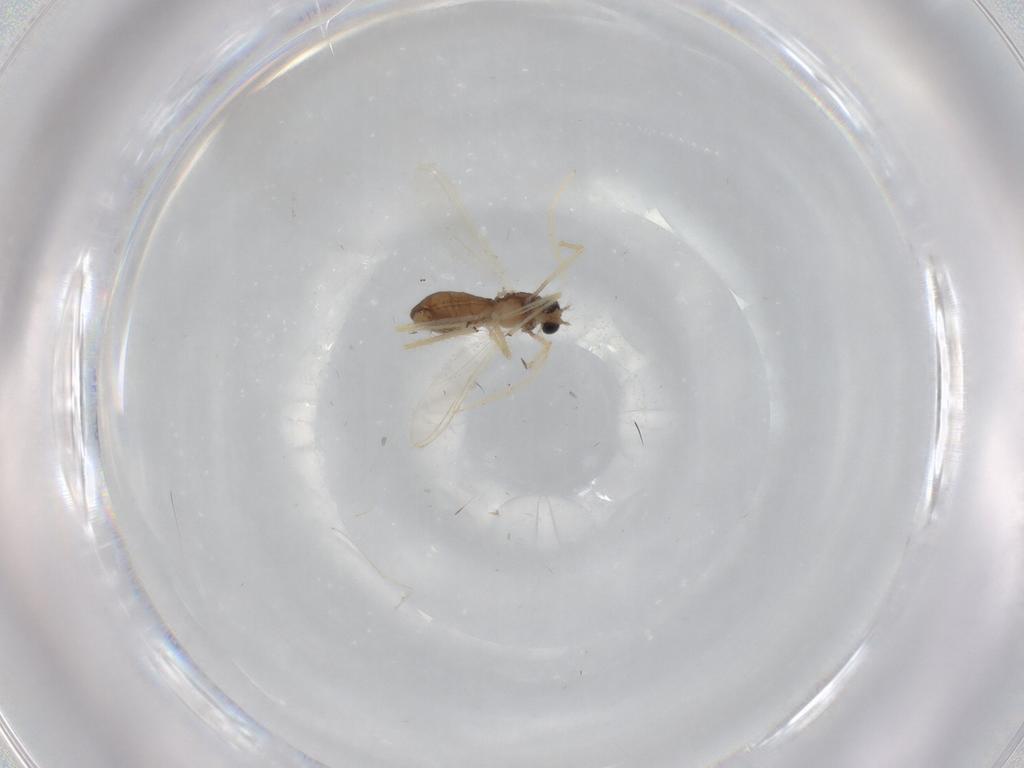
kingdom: Animalia
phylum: Arthropoda
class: Insecta
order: Diptera
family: Chironomidae
